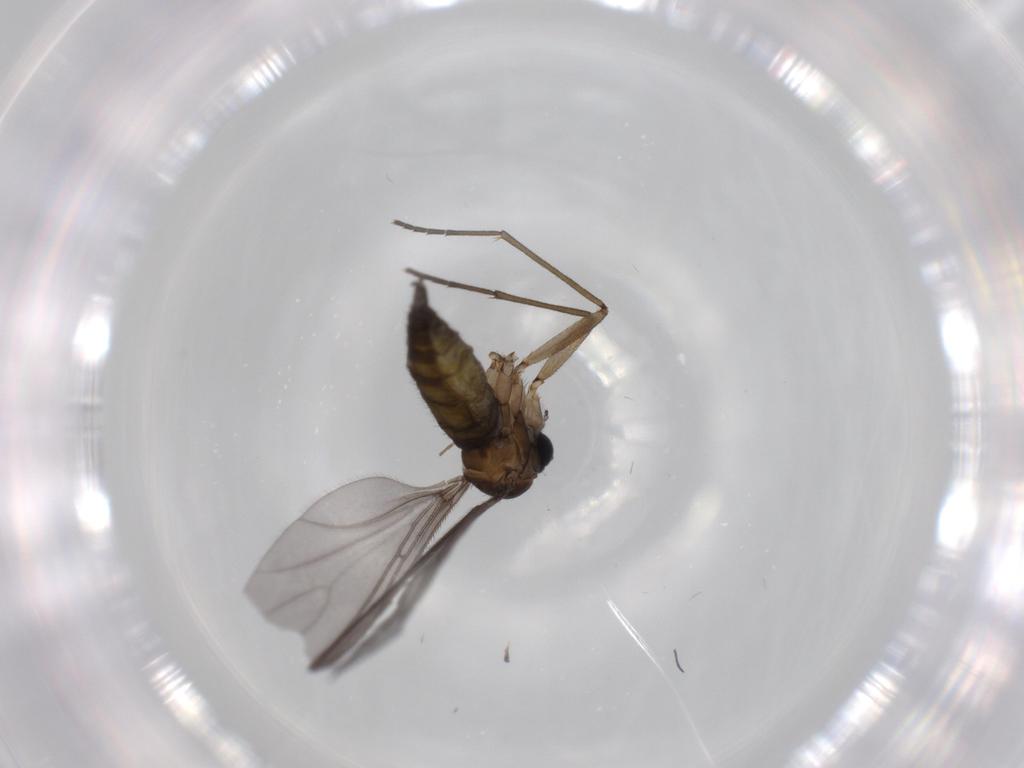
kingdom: Animalia
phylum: Arthropoda
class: Insecta
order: Diptera
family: Sciaridae
